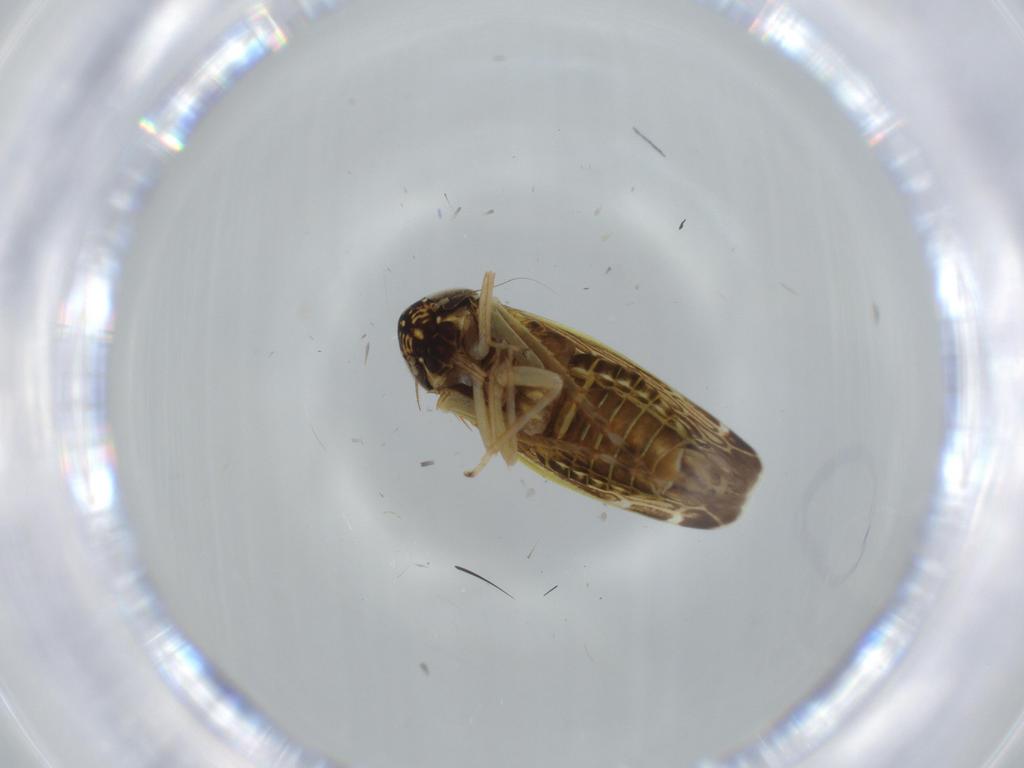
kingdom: Animalia
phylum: Arthropoda
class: Insecta
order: Hemiptera
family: Cicadellidae
